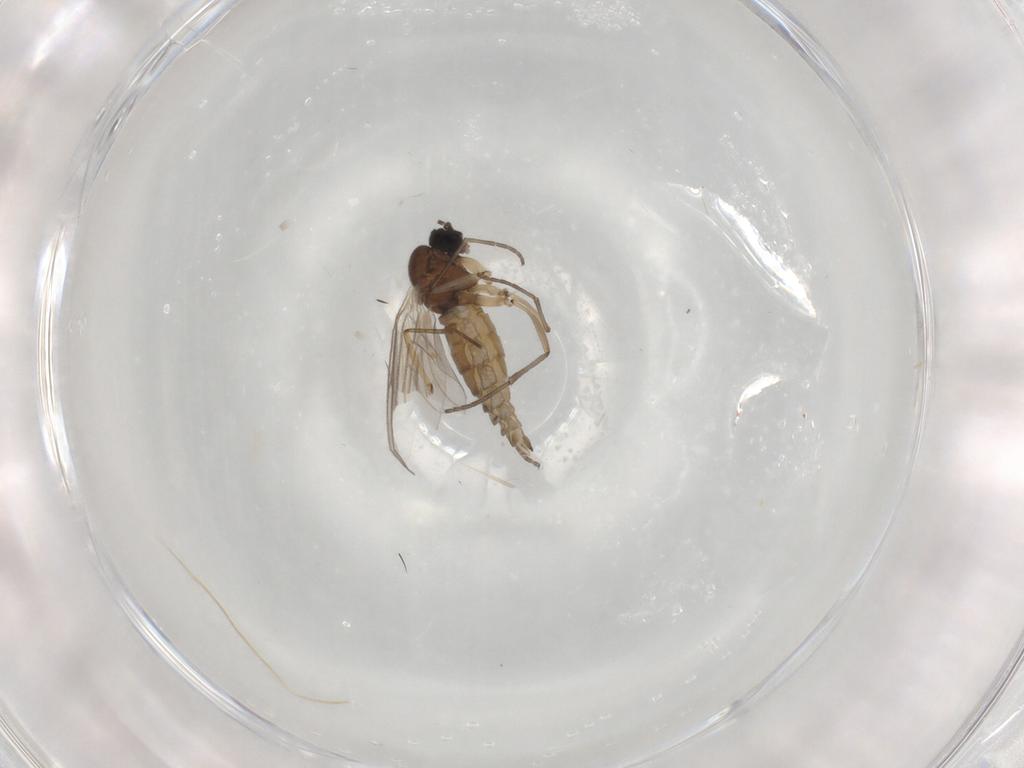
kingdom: Animalia
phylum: Arthropoda
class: Insecta
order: Diptera
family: Sciaridae
